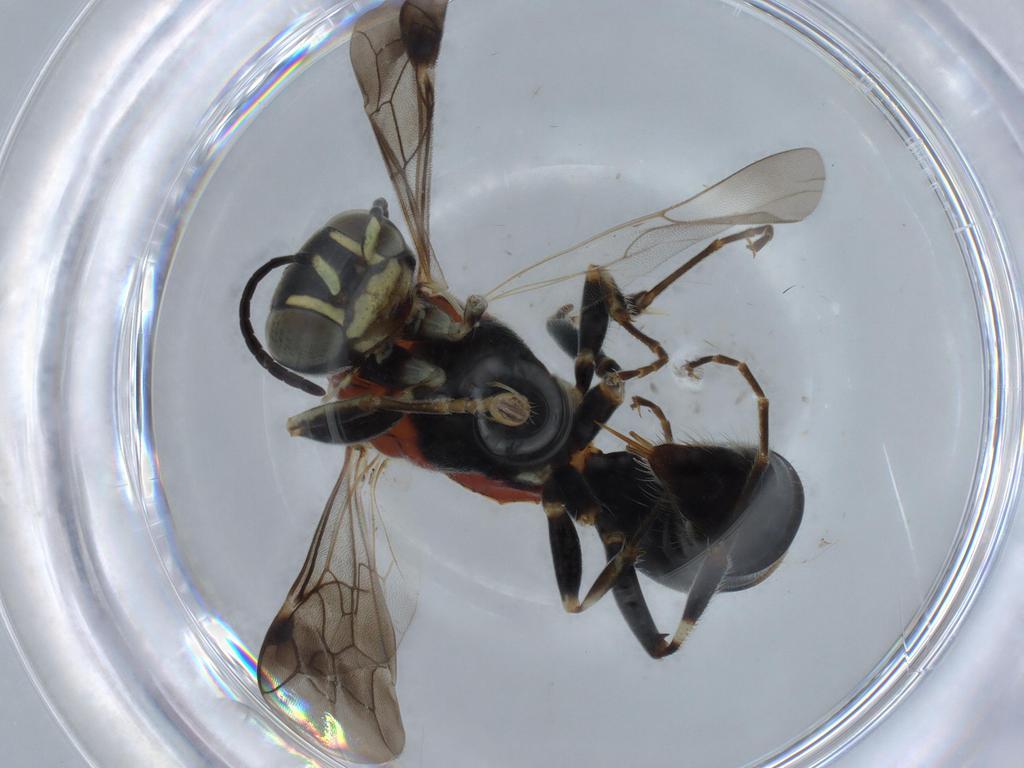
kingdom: Animalia
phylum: Arthropoda
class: Insecta
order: Hymenoptera
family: Bembicidae
